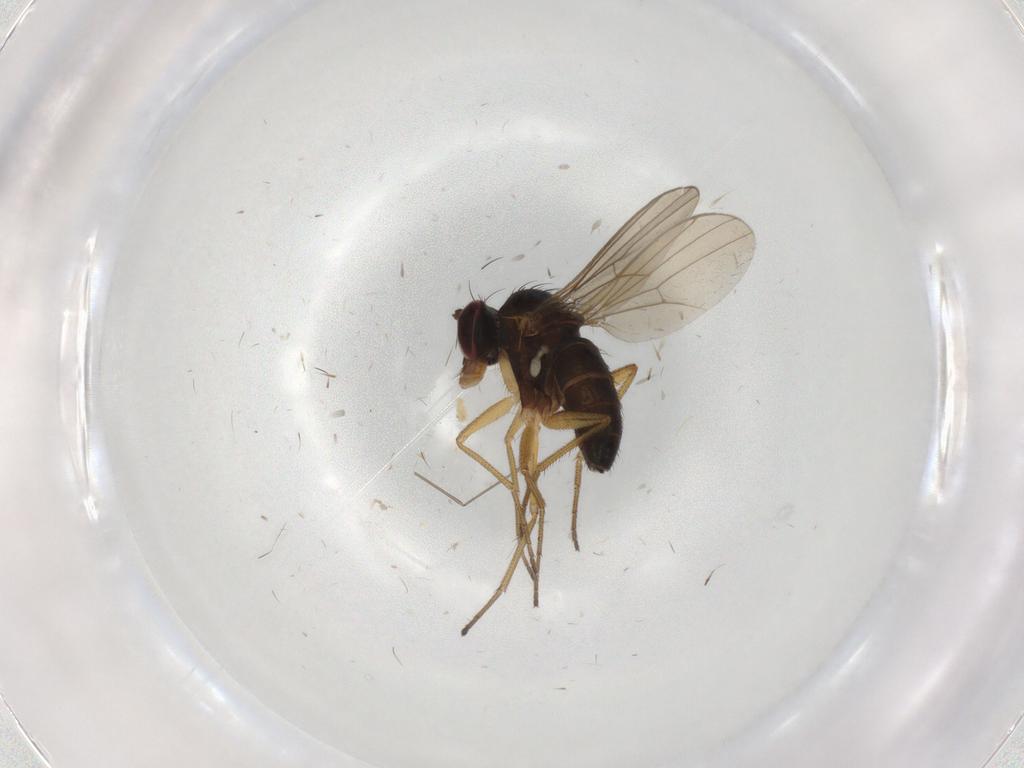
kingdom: Animalia
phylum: Arthropoda
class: Insecta
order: Diptera
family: Dolichopodidae
